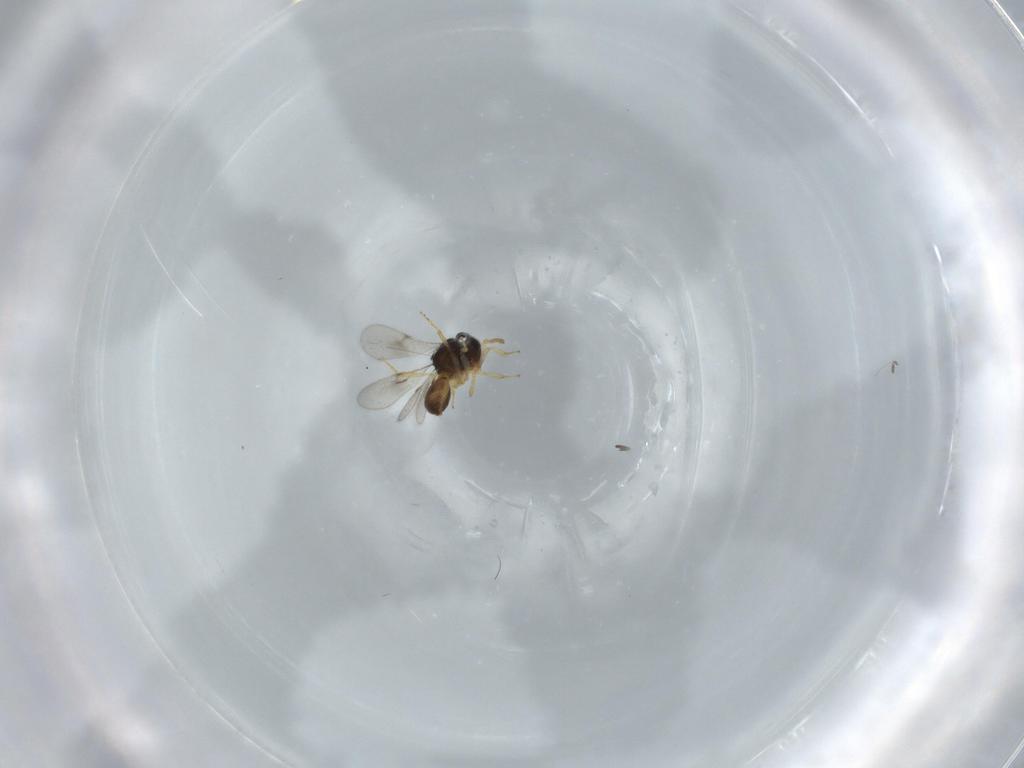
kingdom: Animalia
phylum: Arthropoda
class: Insecta
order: Hymenoptera
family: Scelionidae
